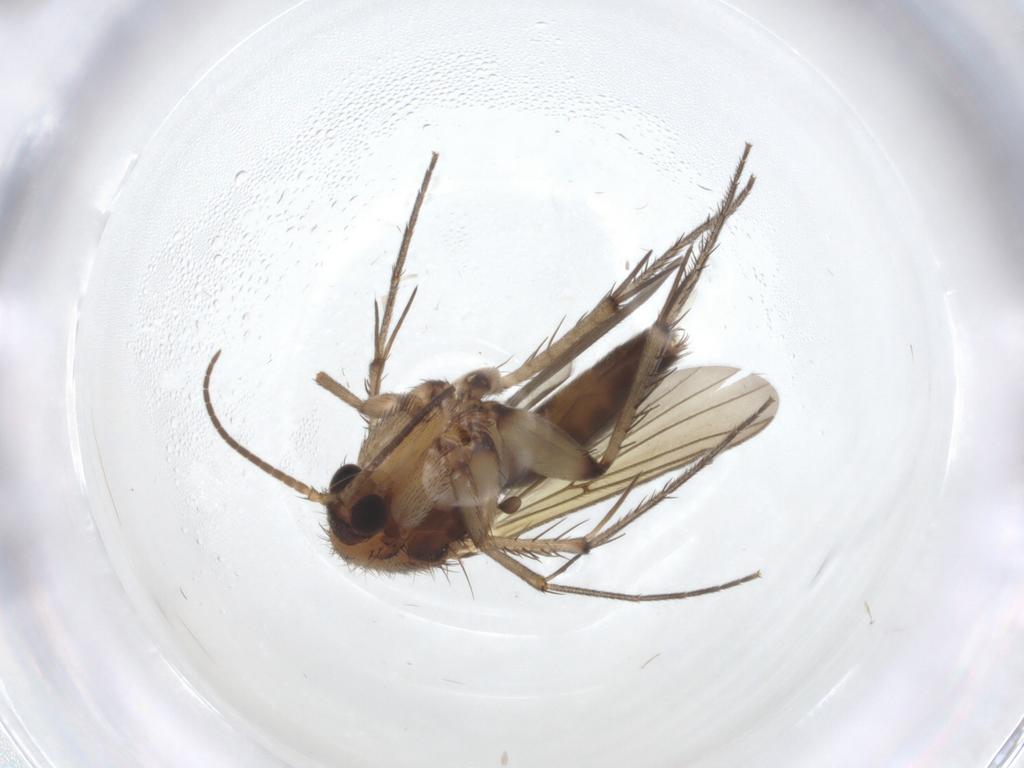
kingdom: Animalia
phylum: Arthropoda
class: Insecta
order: Diptera
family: Mycetophilidae
